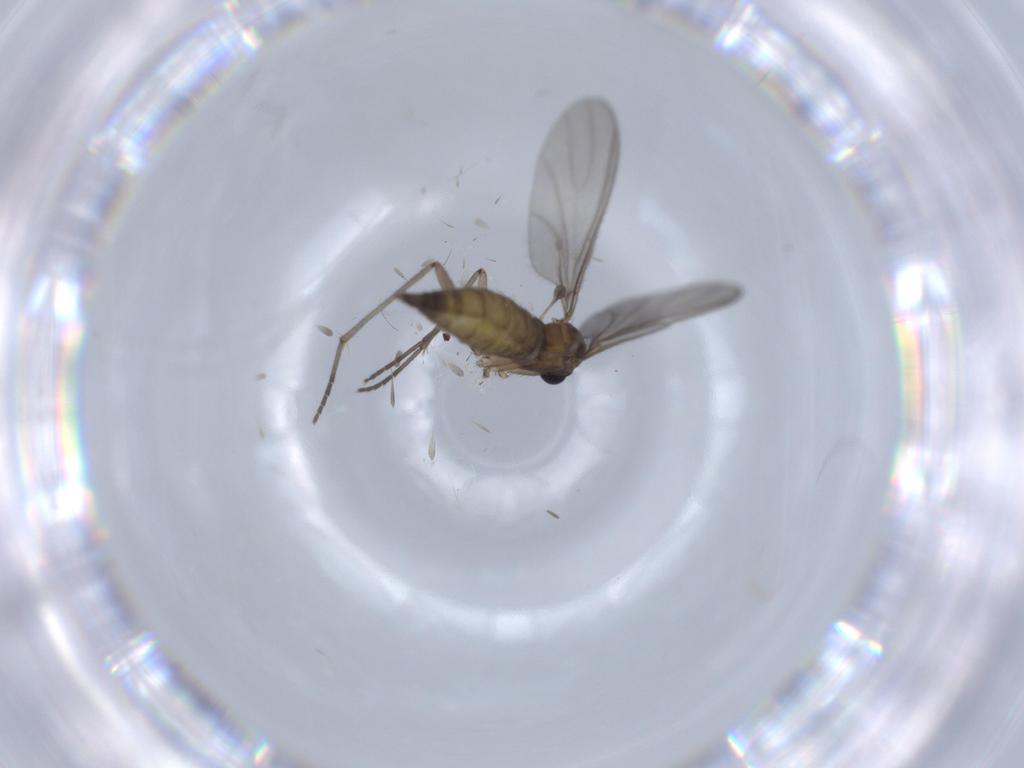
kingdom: Animalia
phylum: Arthropoda
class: Insecta
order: Diptera
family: Sciaridae
